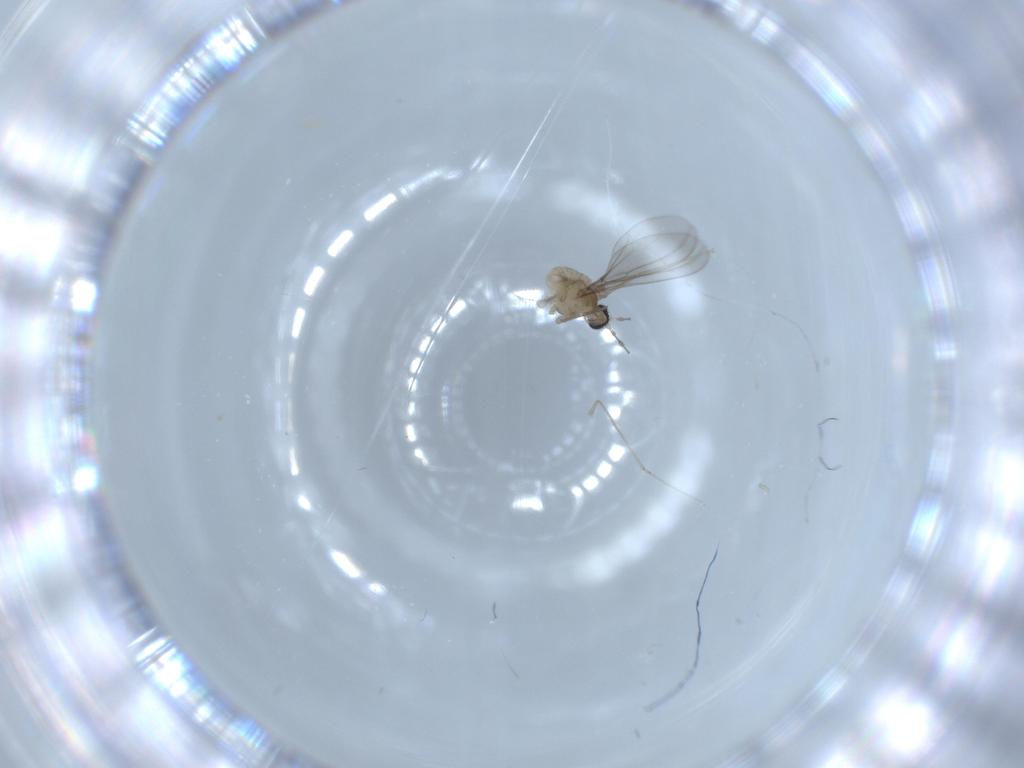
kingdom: Animalia
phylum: Arthropoda
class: Insecta
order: Diptera
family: Cecidomyiidae
